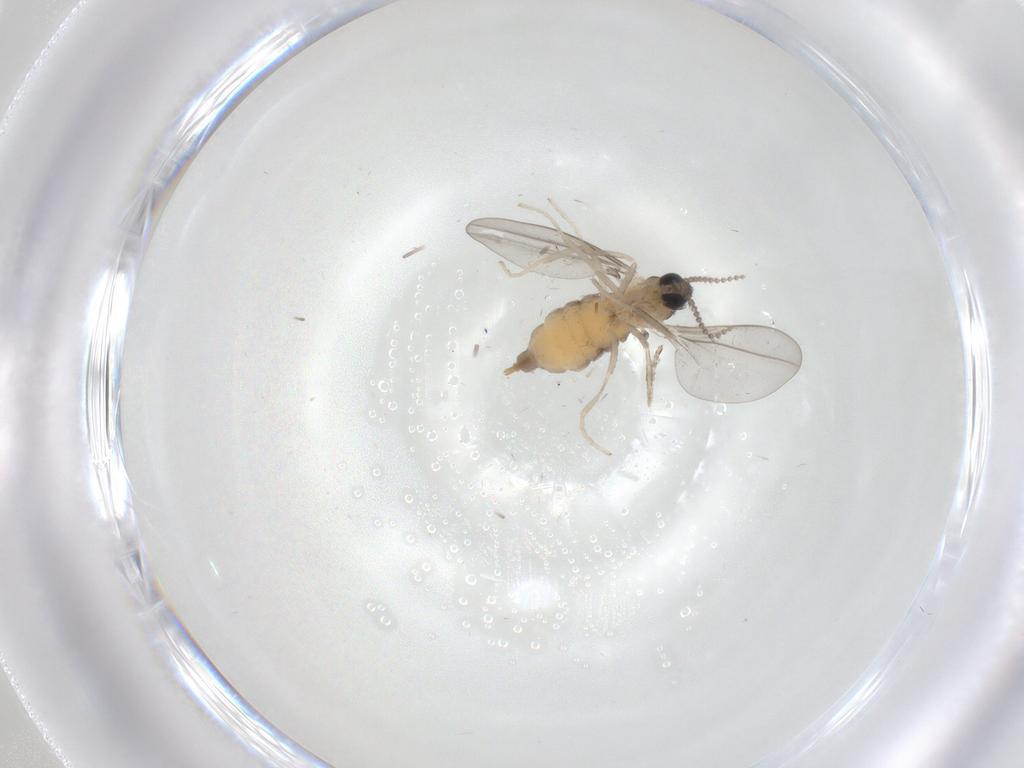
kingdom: Animalia
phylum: Arthropoda
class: Insecta
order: Diptera
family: Cecidomyiidae
